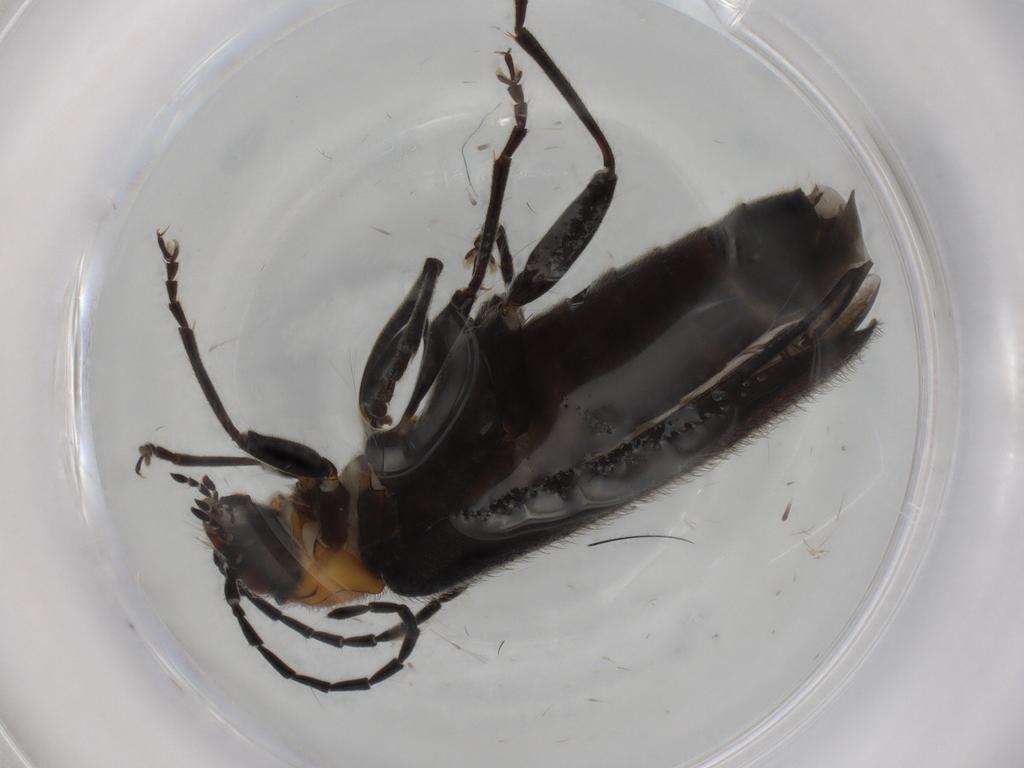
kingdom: Animalia
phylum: Arthropoda
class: Insecta
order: Coleoptera
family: Cantharidae
